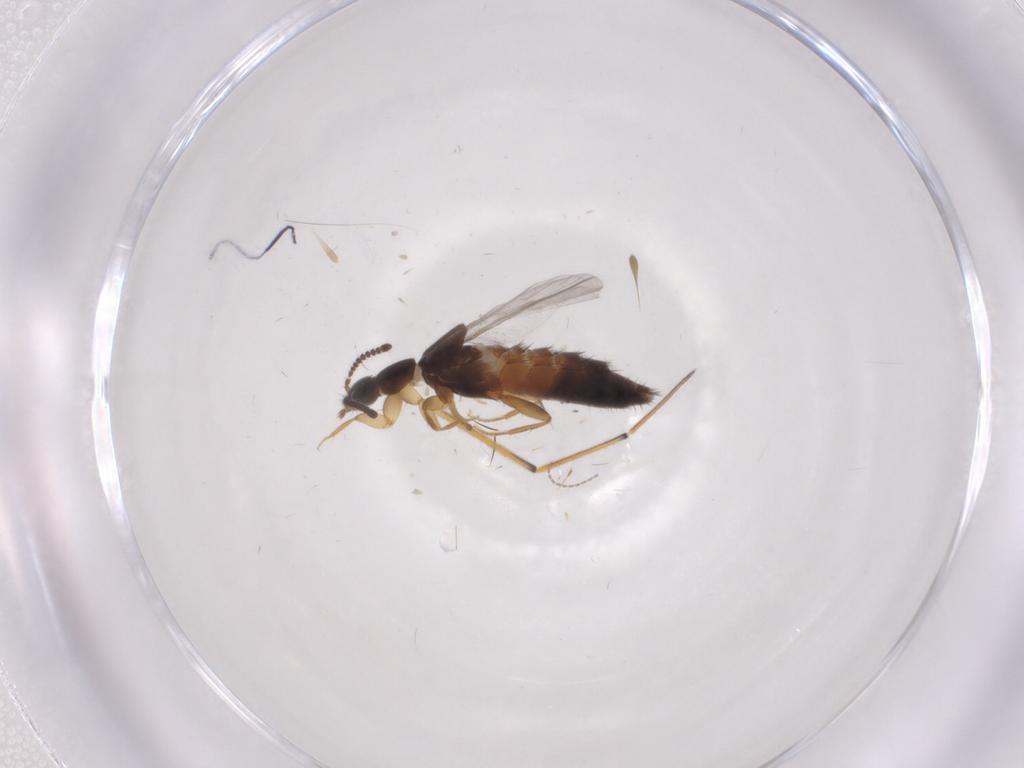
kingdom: Animalia
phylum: Arthropoda
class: Insecta
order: Coleoptera
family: Staphylinidae
